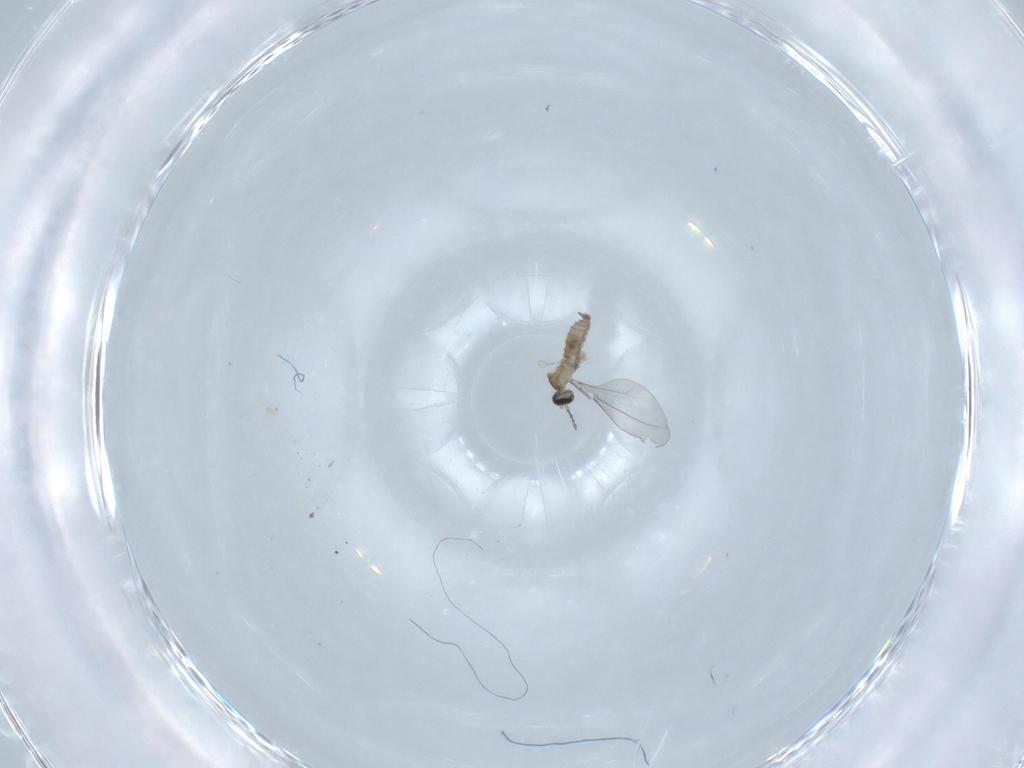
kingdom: Animalia
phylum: Arthropoda
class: Insecta
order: Diptera
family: Cecidomyiidae
